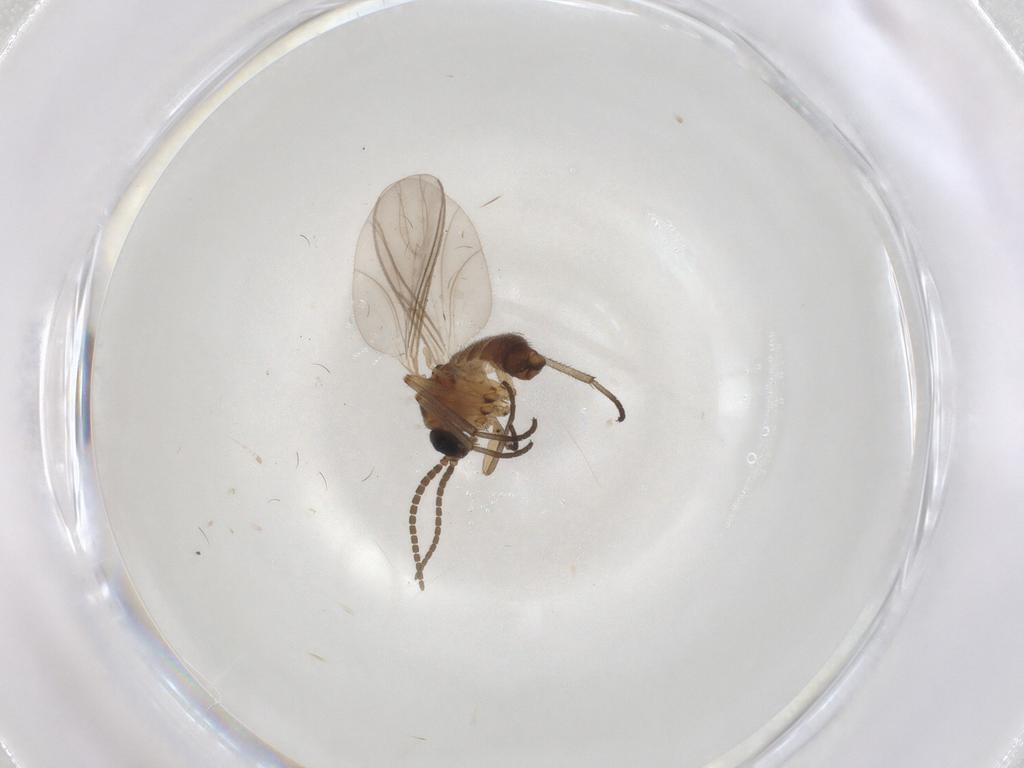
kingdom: Animalia
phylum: Arthropoda
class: Insecta
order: Diptera
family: Sciaridae
